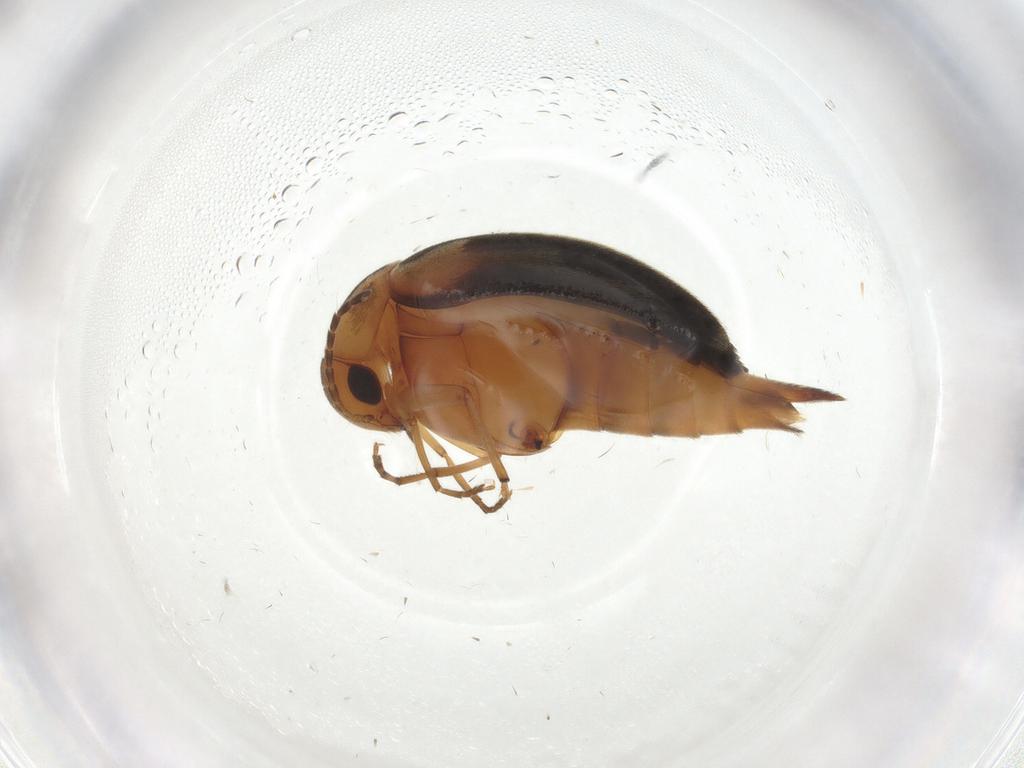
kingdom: Animalia
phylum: Arthropoda
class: Insecta
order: Coleoptera
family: Mordellidae
